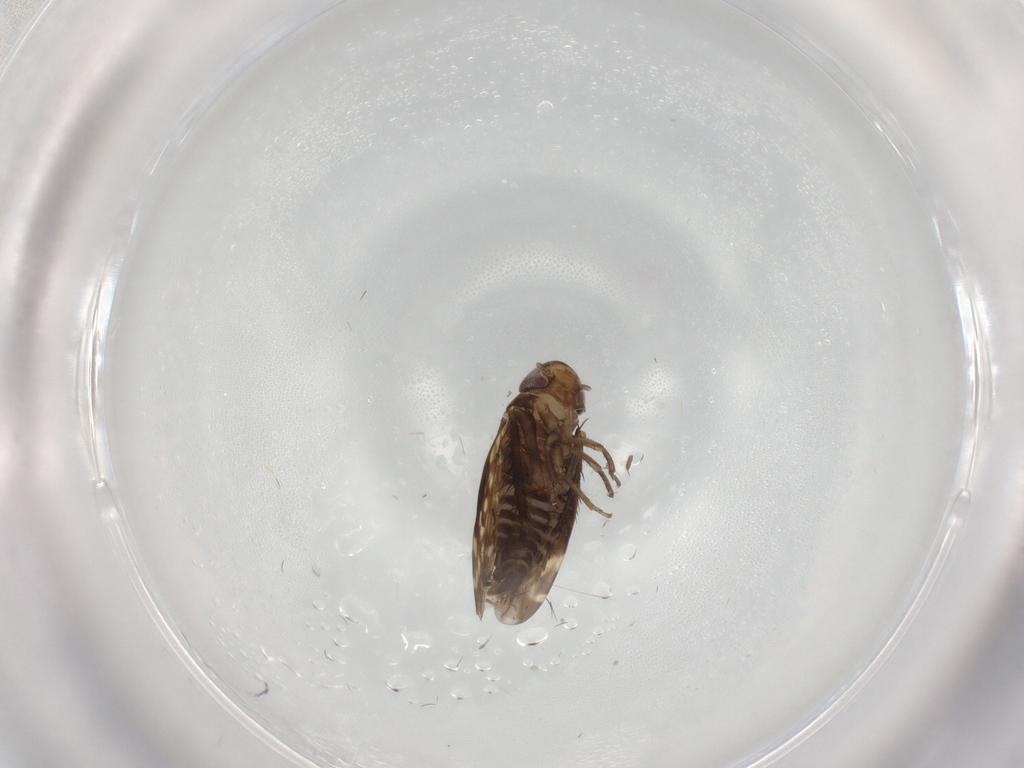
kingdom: Animalia
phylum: Arthropoda
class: Insecta
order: Hemiptera
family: Cicadellidae
